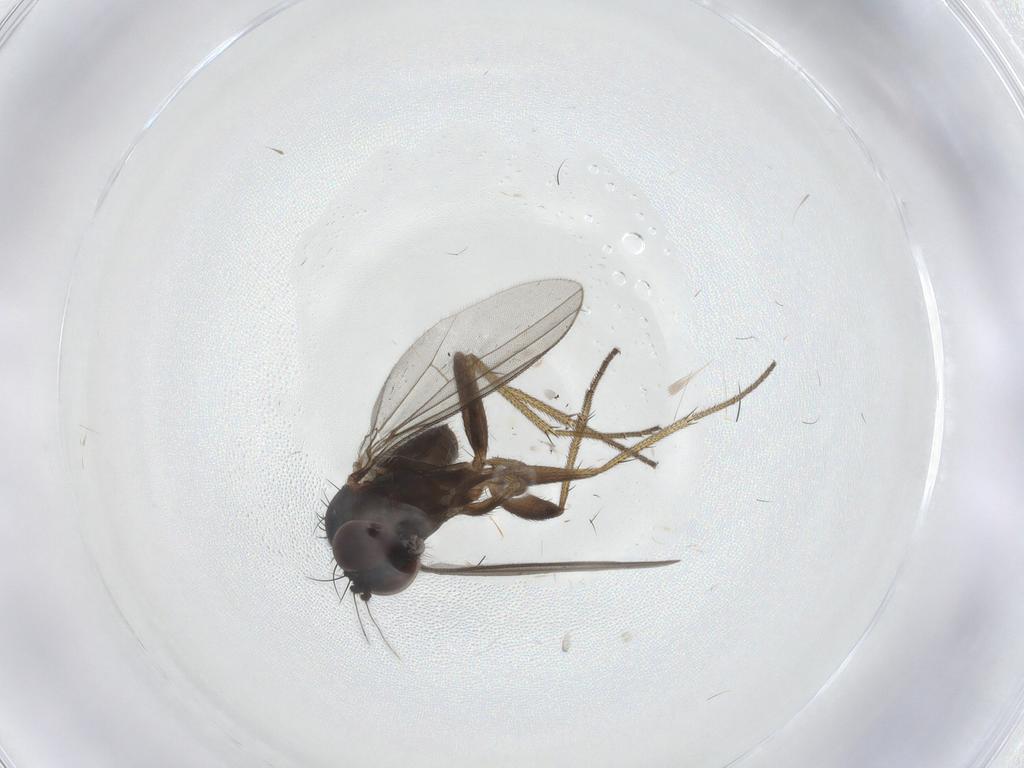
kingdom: Animalia
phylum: Arthropoda
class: Insecta
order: Diptera
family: Dolichopodidae
